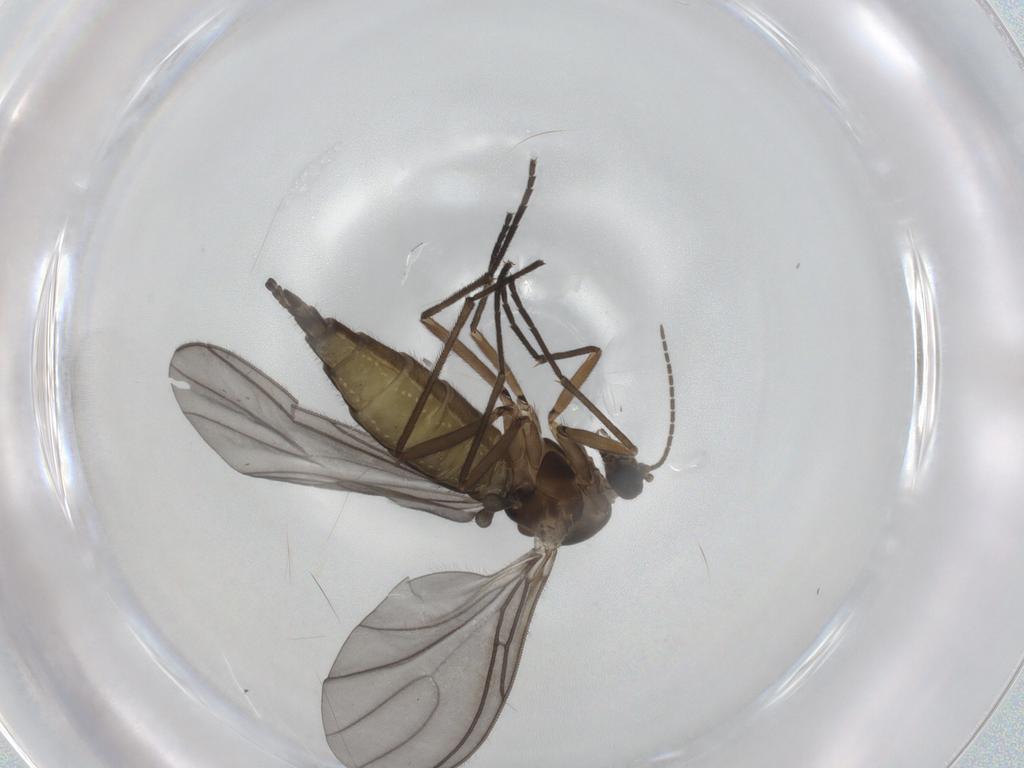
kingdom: Animalia
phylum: Arthropoda
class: Insecta
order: Diptera
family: Sciaridae
